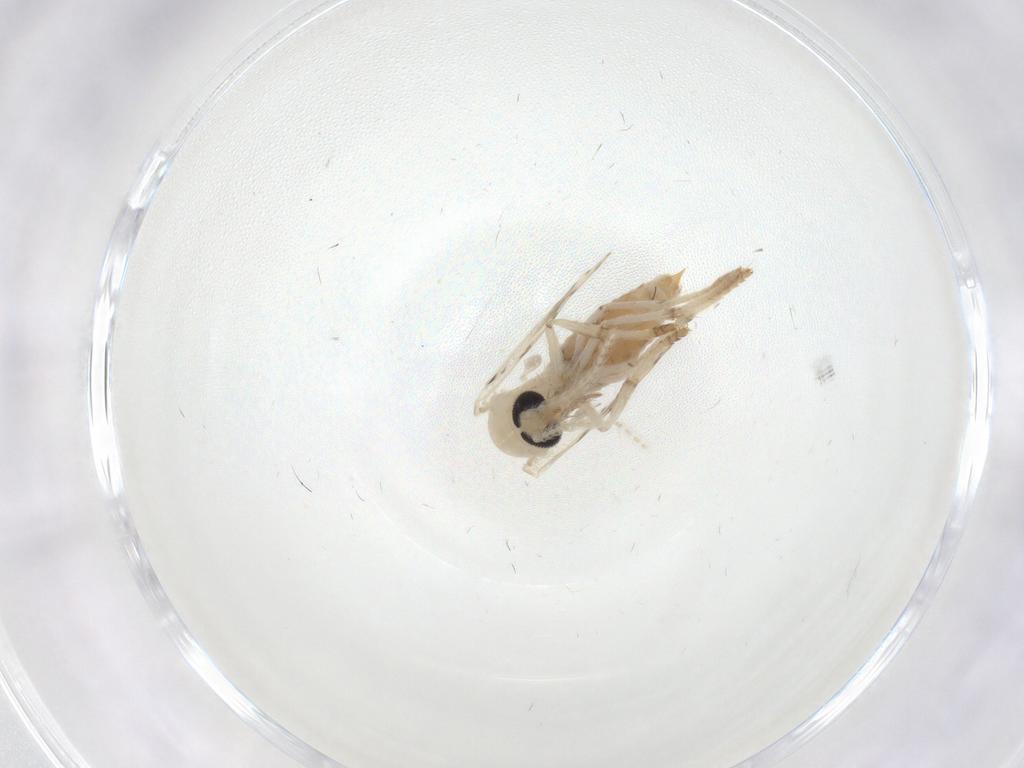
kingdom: Animalia
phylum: Arthropoda
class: Insecta
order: Diptera
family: Psychodidae
